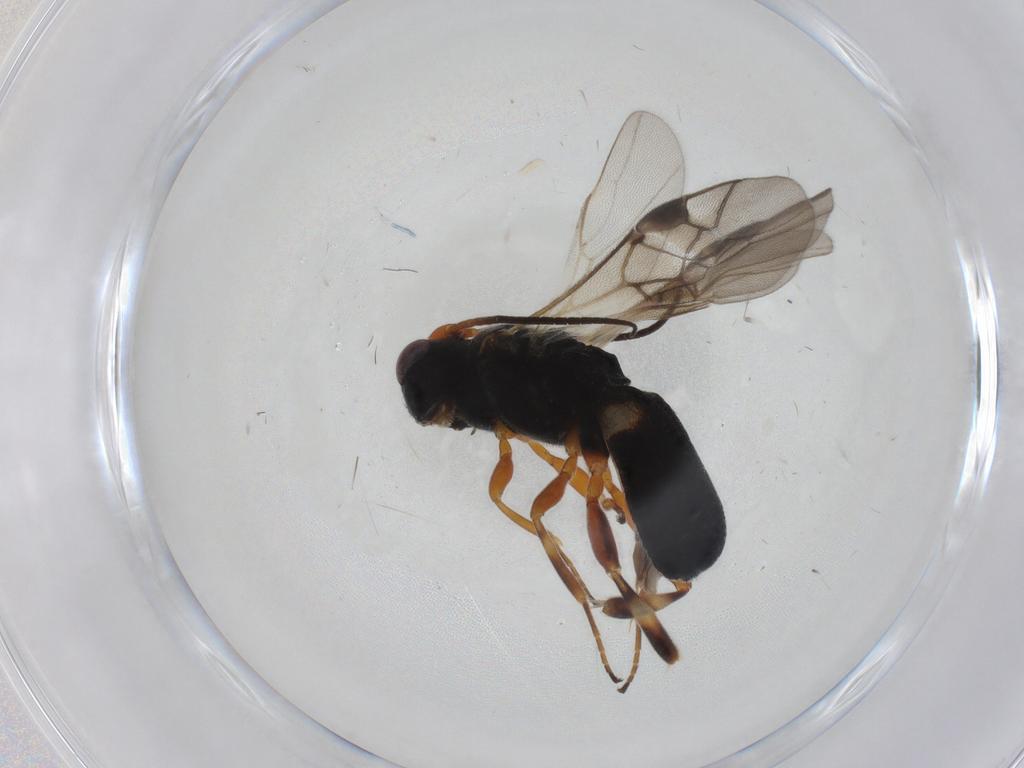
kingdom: Animalia
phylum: Arthropoda
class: Insecta
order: Hymenoptera
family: Braconidae
